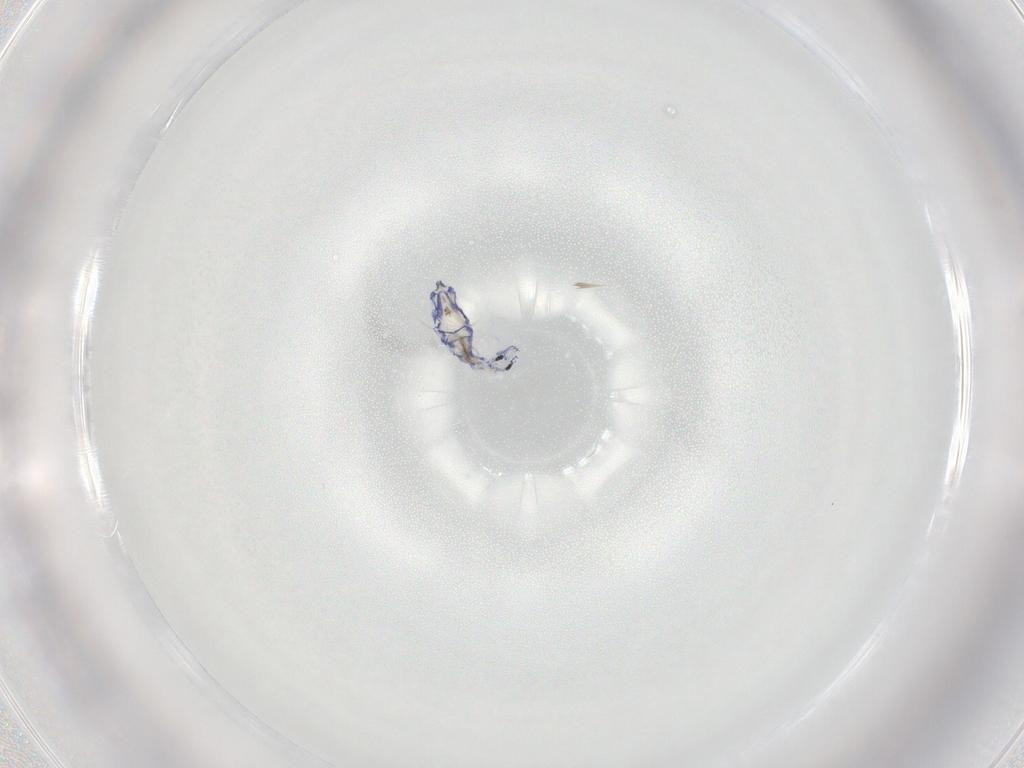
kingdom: Animalia
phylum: Arthropoda
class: Collembola
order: Entomobryomorpha
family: Entomobryidae
